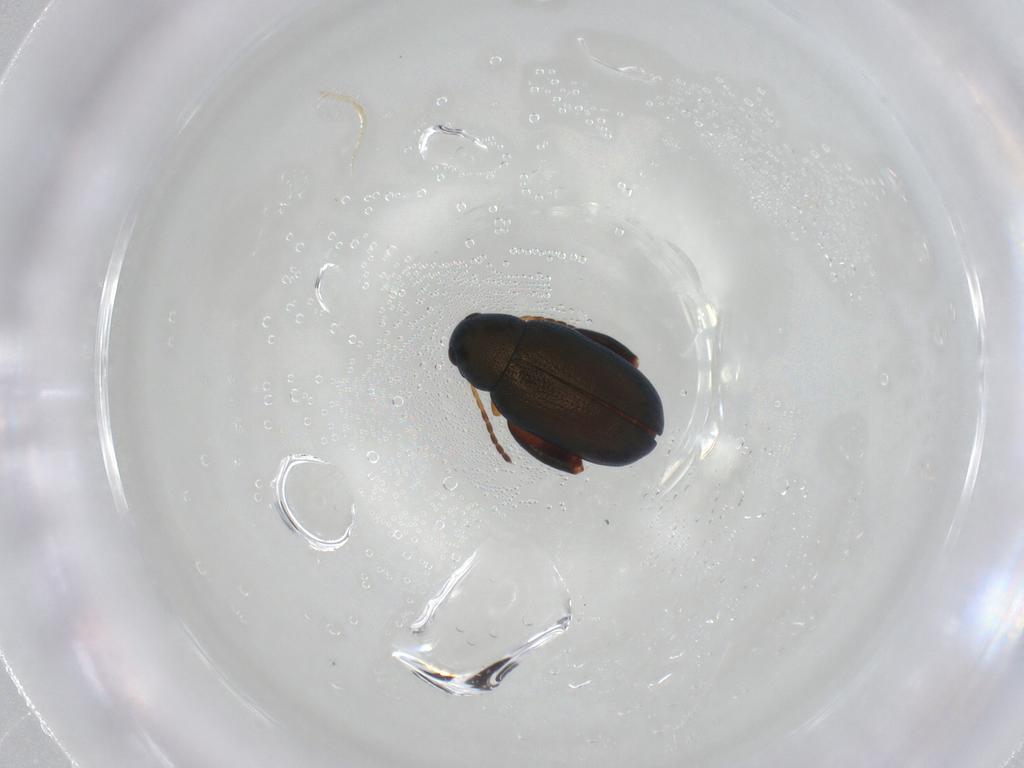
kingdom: Animalia
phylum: Arthropoda
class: Insecta
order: Coleoptera
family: Chrysomelidae
